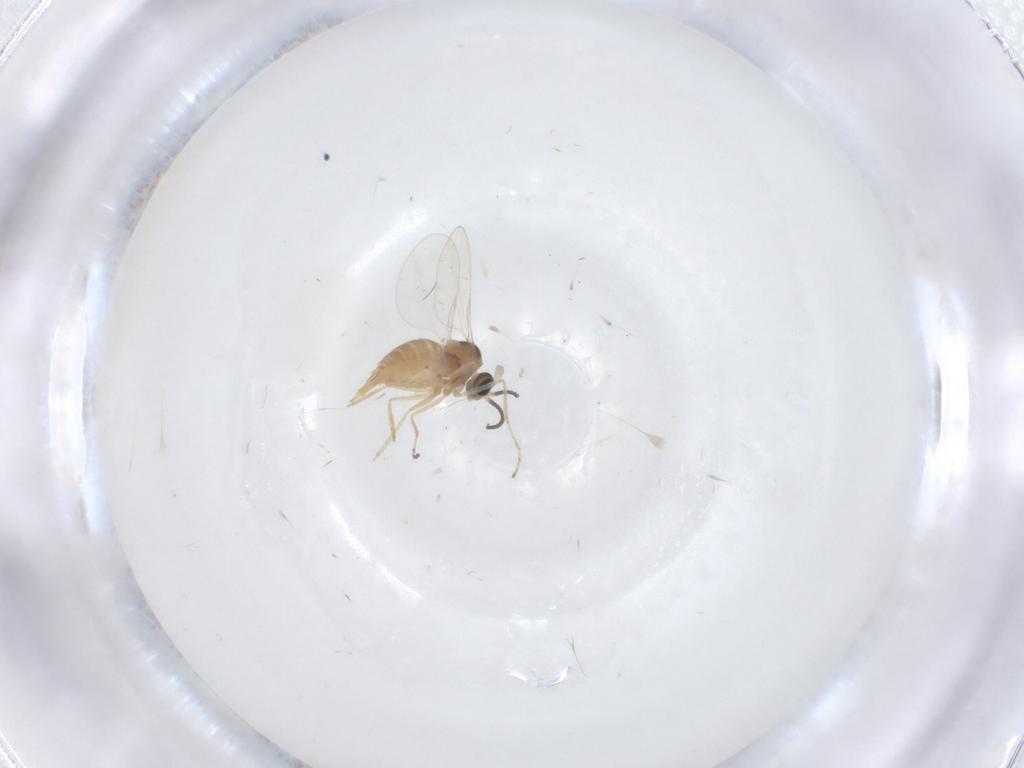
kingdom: Animalia
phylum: Arthropoda
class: Insecta
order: Diptera
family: Cecidomyiidae
